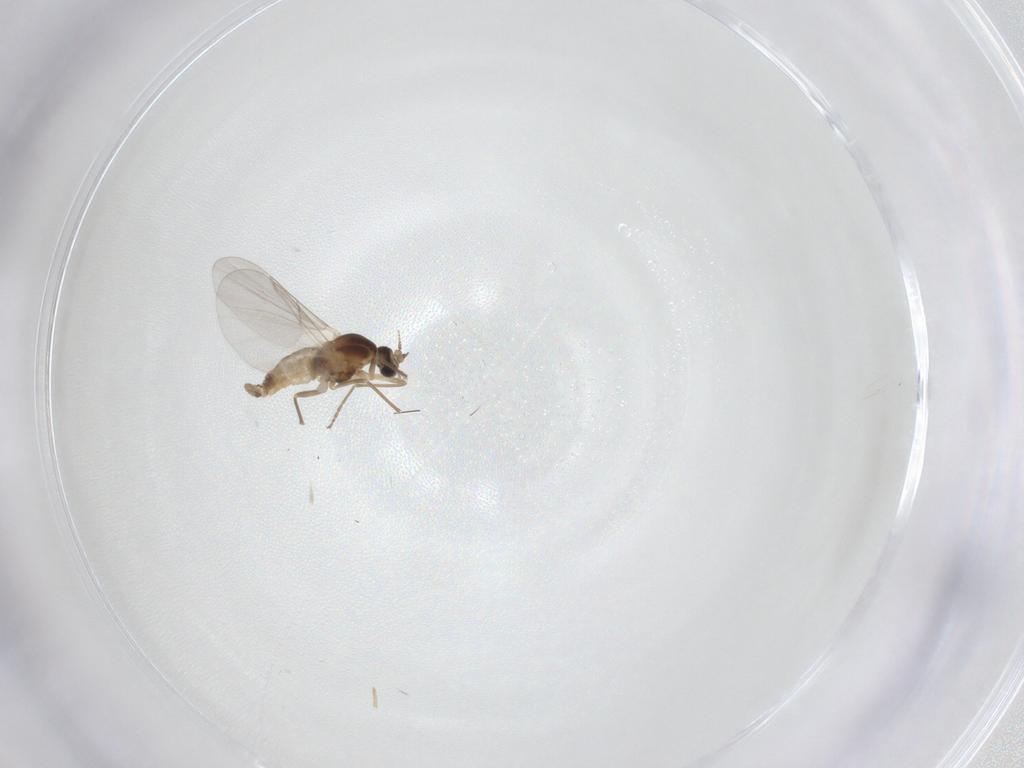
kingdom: Animalia
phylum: Arthropoda
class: Insecta
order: Diptera
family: Cecidomyiidae
